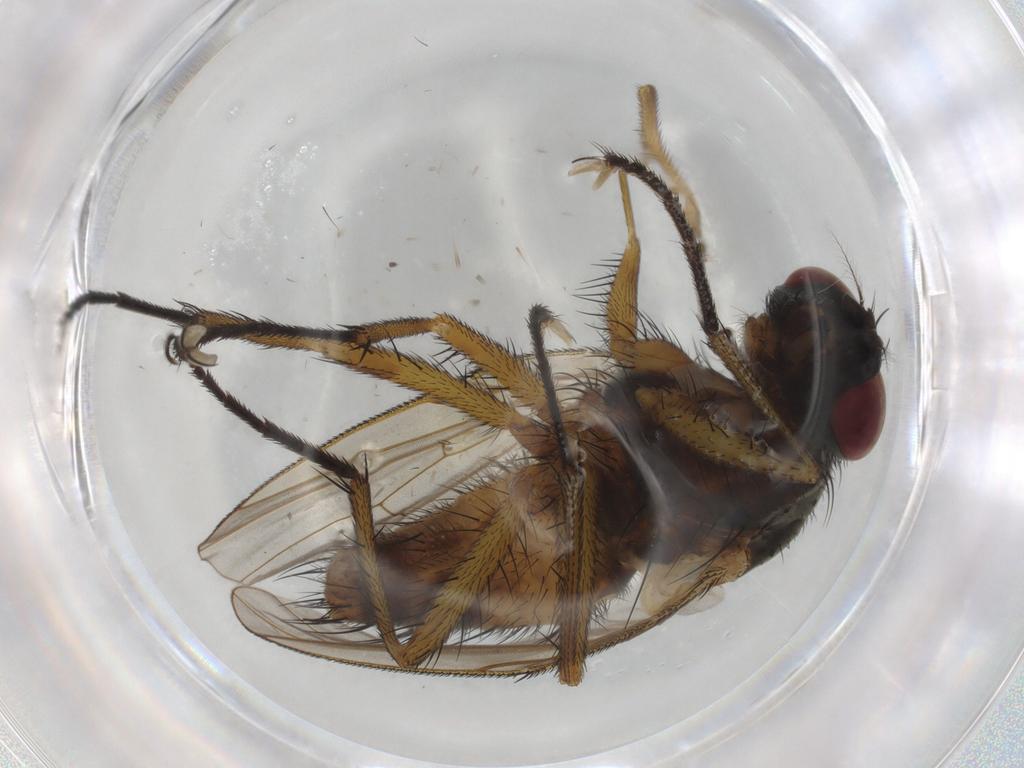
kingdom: Animalia
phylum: Arthropoda
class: Insecta
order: Diptera
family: Muscidae
